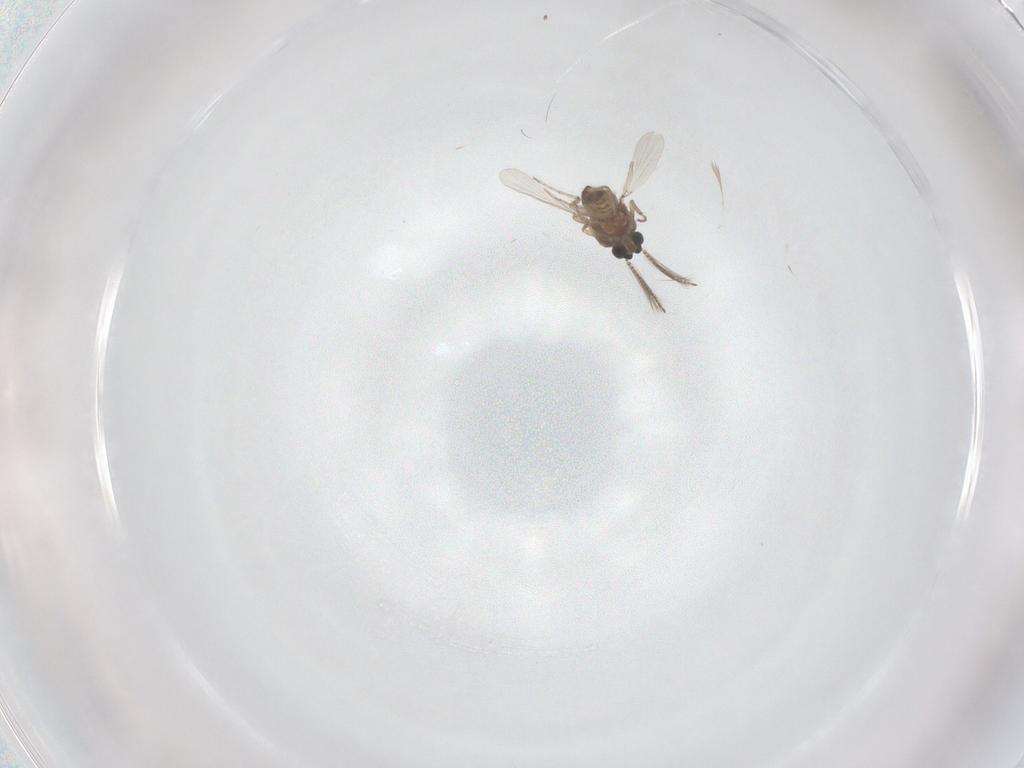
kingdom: Animalia
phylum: Arthropoda
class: Insecta
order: Diptera
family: Ceratopogonidae
